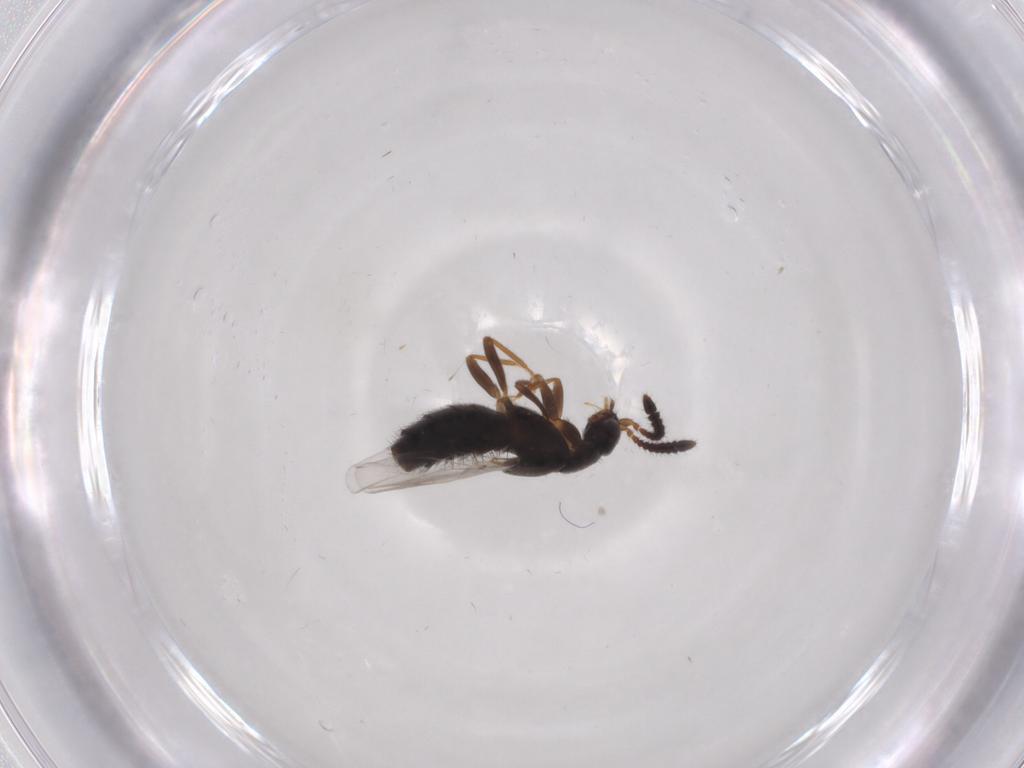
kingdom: Animalia
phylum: Arthropoda
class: Insecta
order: Coleoptera
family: Staphylinidae
